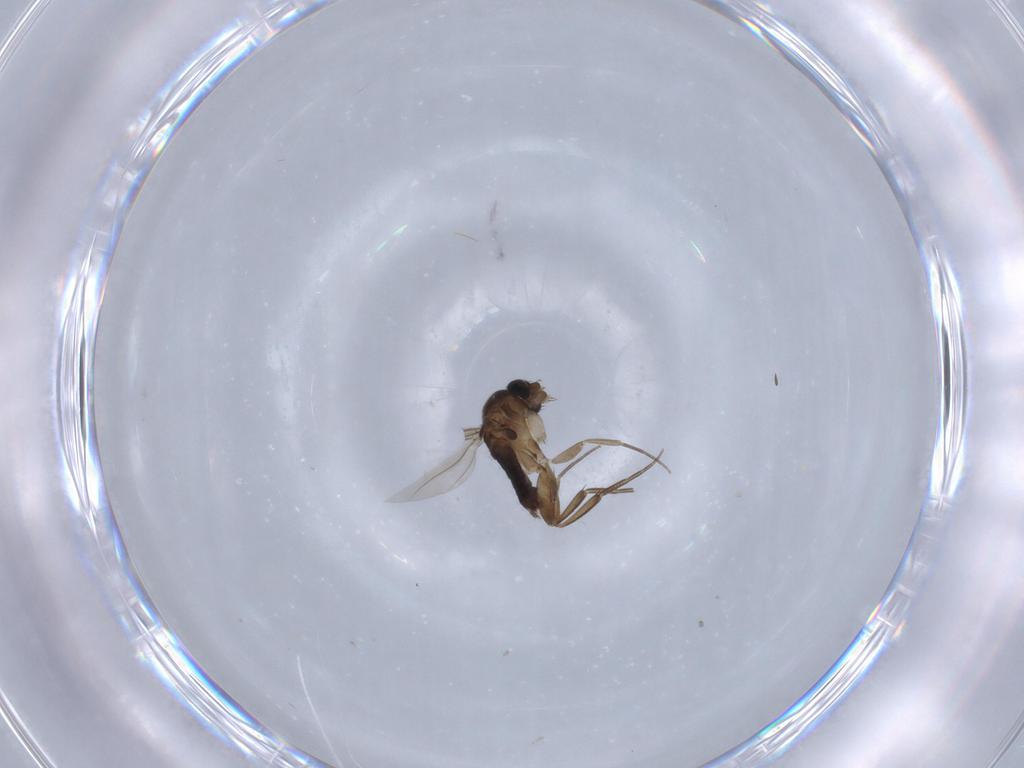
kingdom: Animalia
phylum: Arthropoda
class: Insecta
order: Diptera
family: Phoridae
